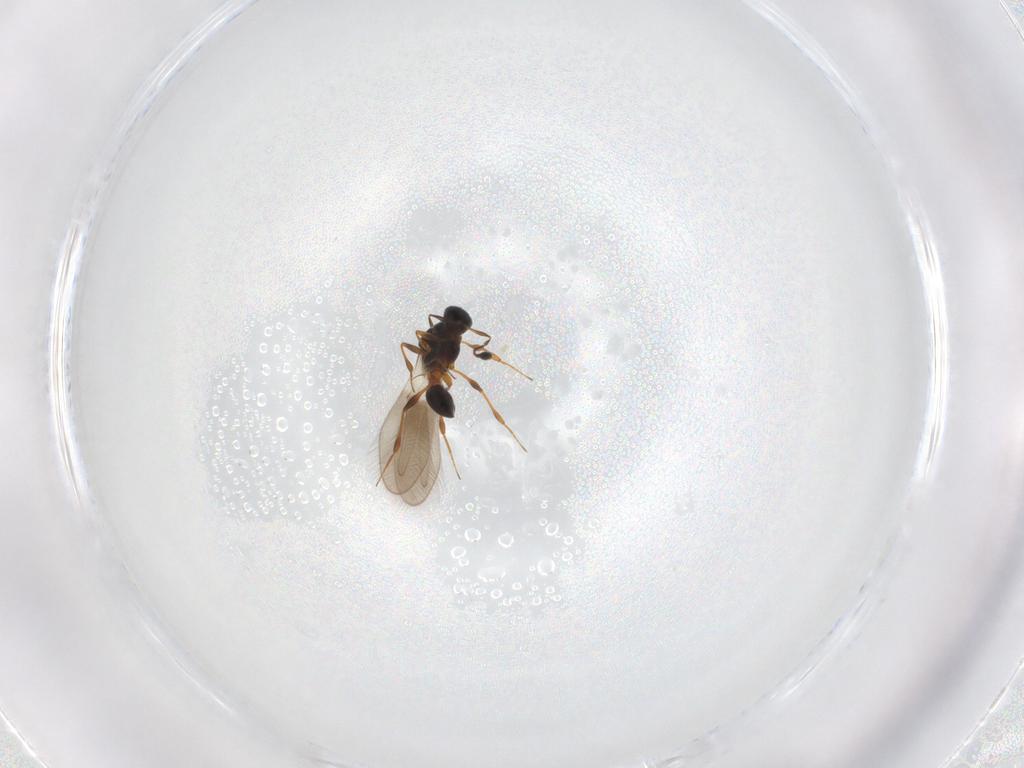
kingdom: Animalia
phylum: Arthropoda
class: Insecta
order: Hymenoptera
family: Platygastridae
